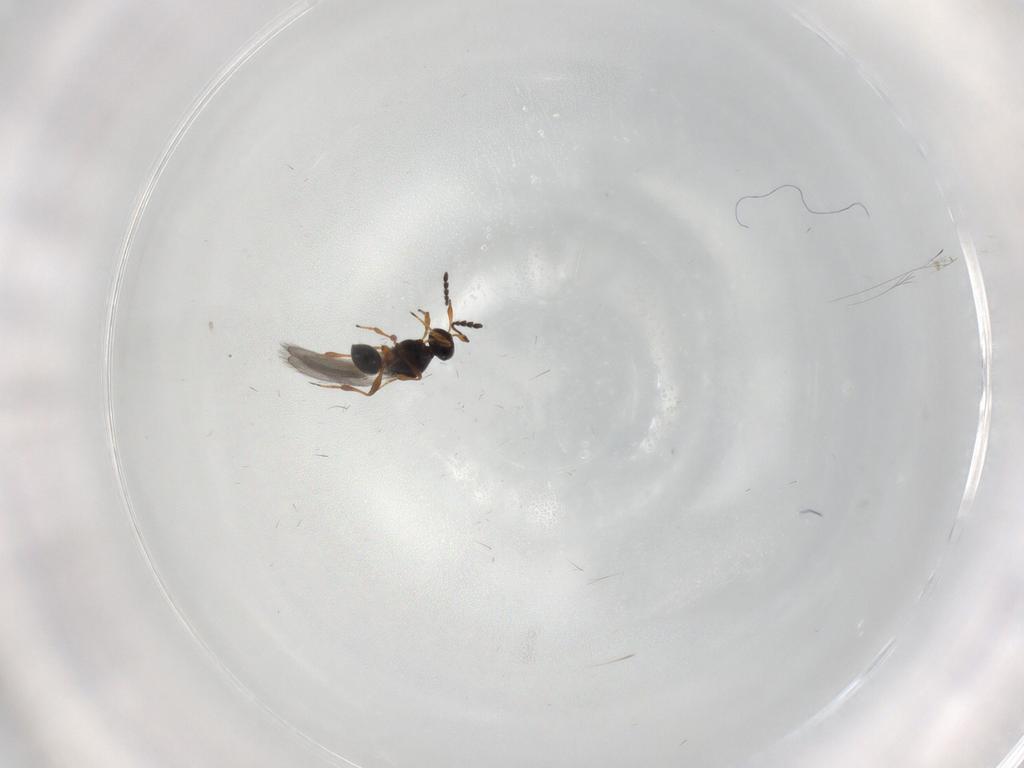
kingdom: Animalia
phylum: Arthropoda
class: Insecta
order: Hymenoptera
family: Platygastridae
